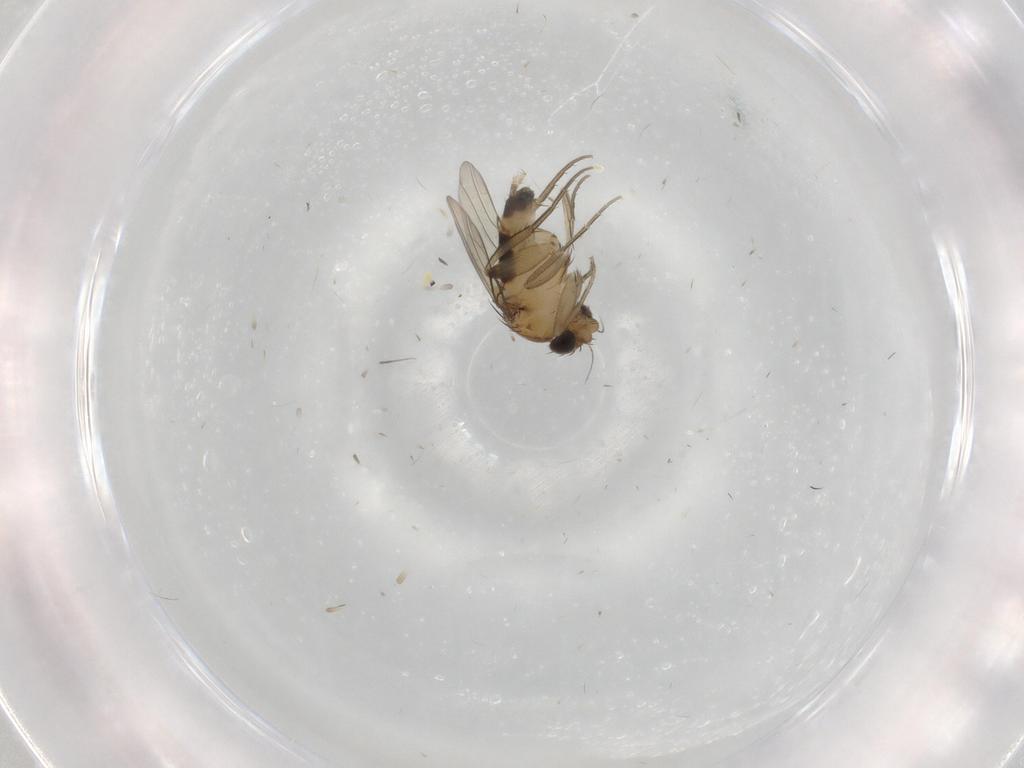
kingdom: Animalia
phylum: Arthropoda
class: Insecta
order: Diptera
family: Phoridae
